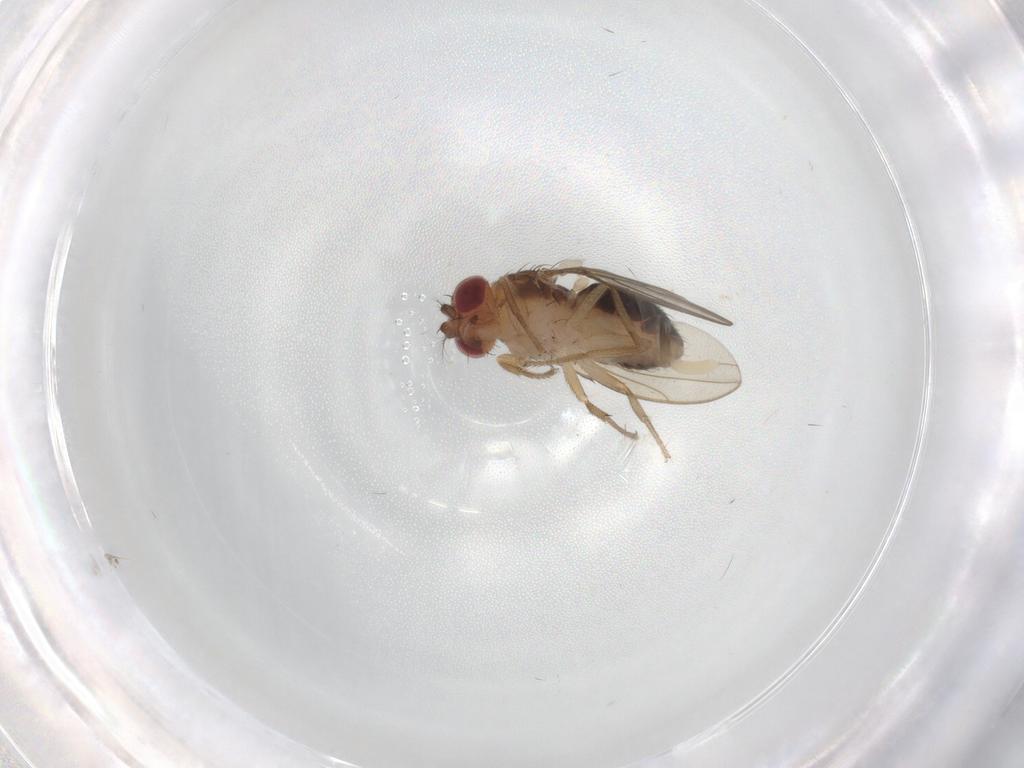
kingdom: Animalia
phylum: Arthropoda
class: Insecta
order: Diptera
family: Drosophilidae
